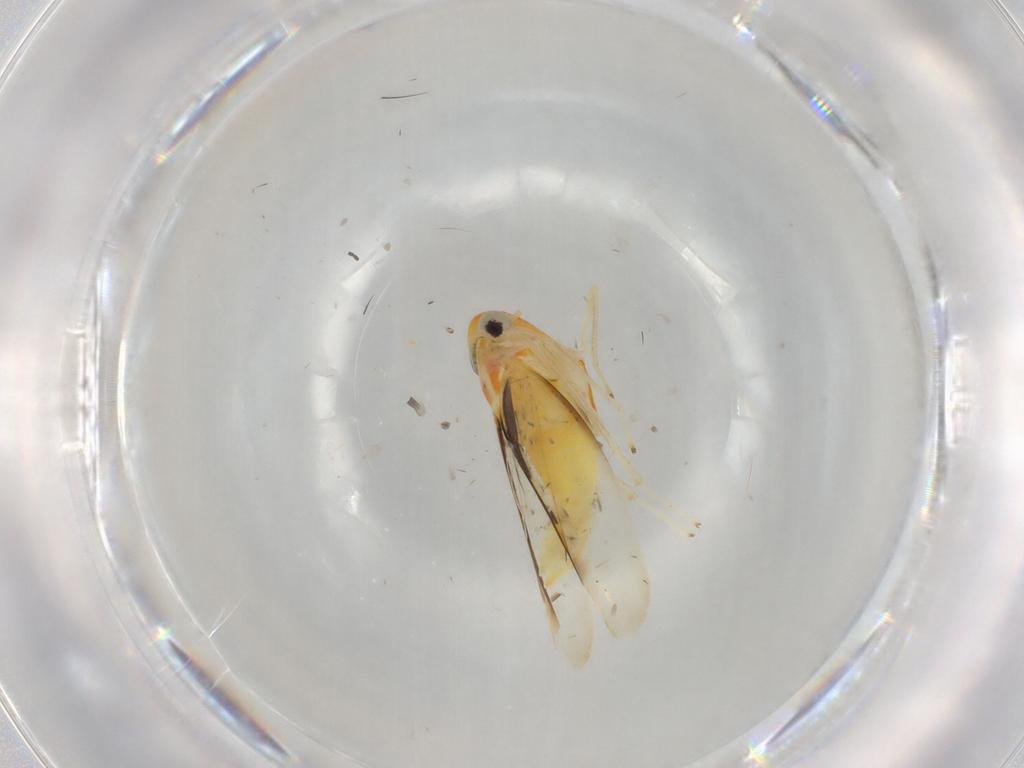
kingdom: Animalia
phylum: Arthropoda
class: Insecta
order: Hemiptera
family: Cicadellidae
